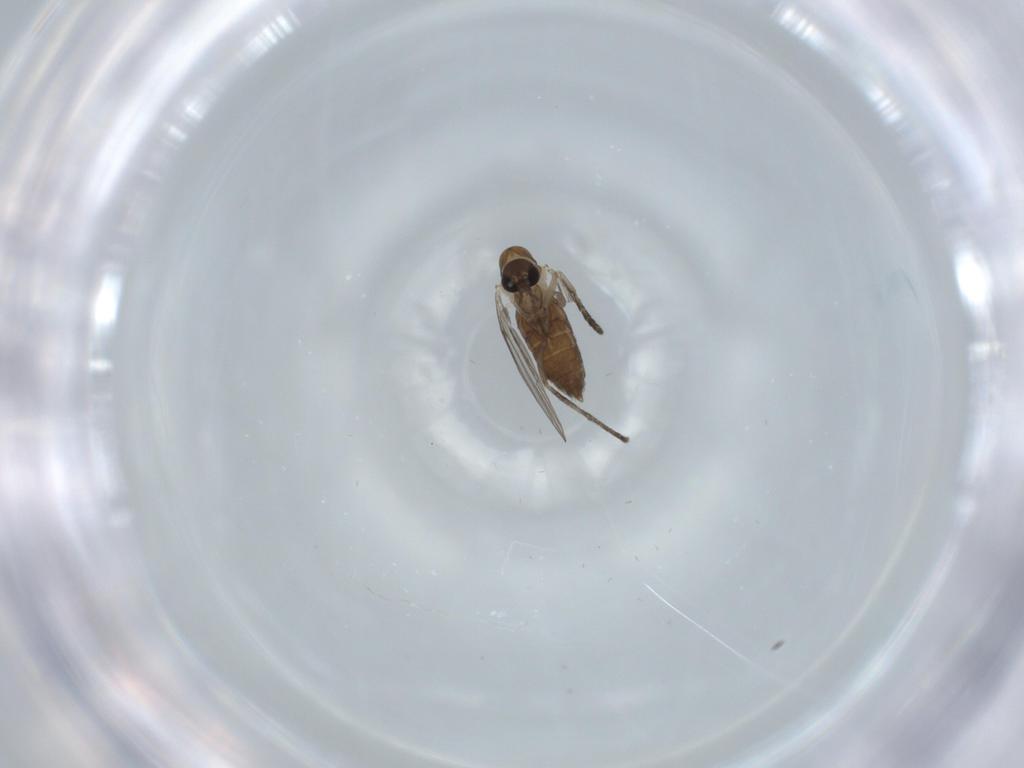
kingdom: Animalia
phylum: Arthropoda
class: Insecta
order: Diptera
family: Psychodidae
